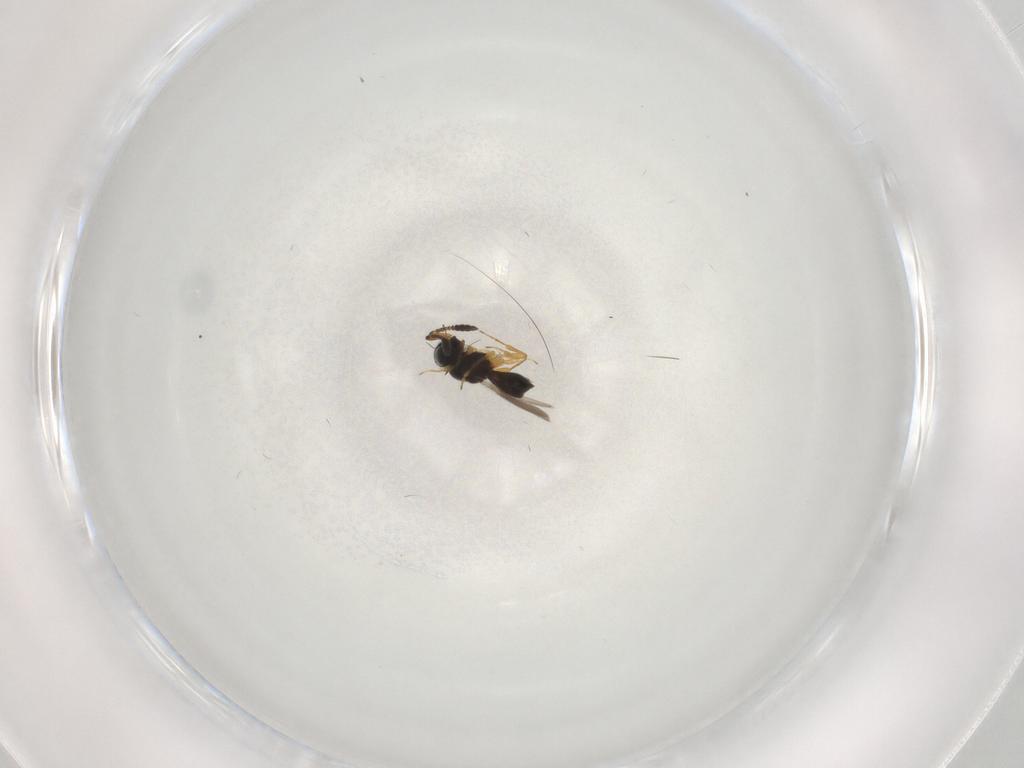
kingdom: Animalia
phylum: Arthropoda
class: Insecta
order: Hymenoptera
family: Scelionidae
